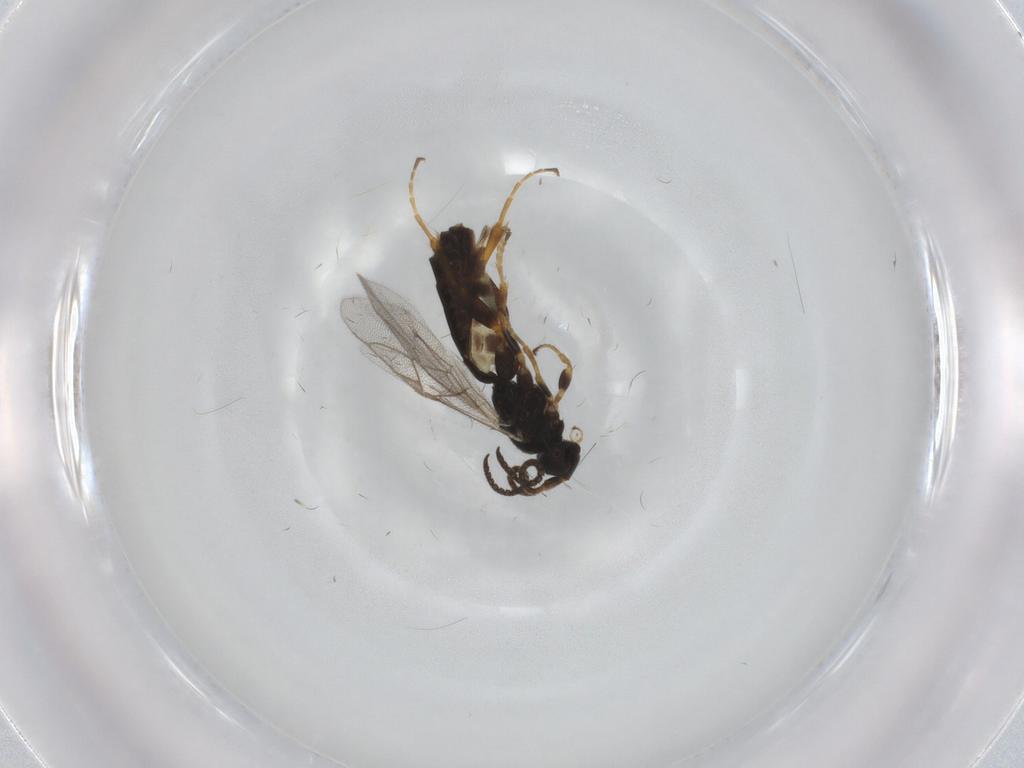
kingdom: Animalia
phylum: Arthropoda
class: Insecta
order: Hymenoptera
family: Ichneumonidae
